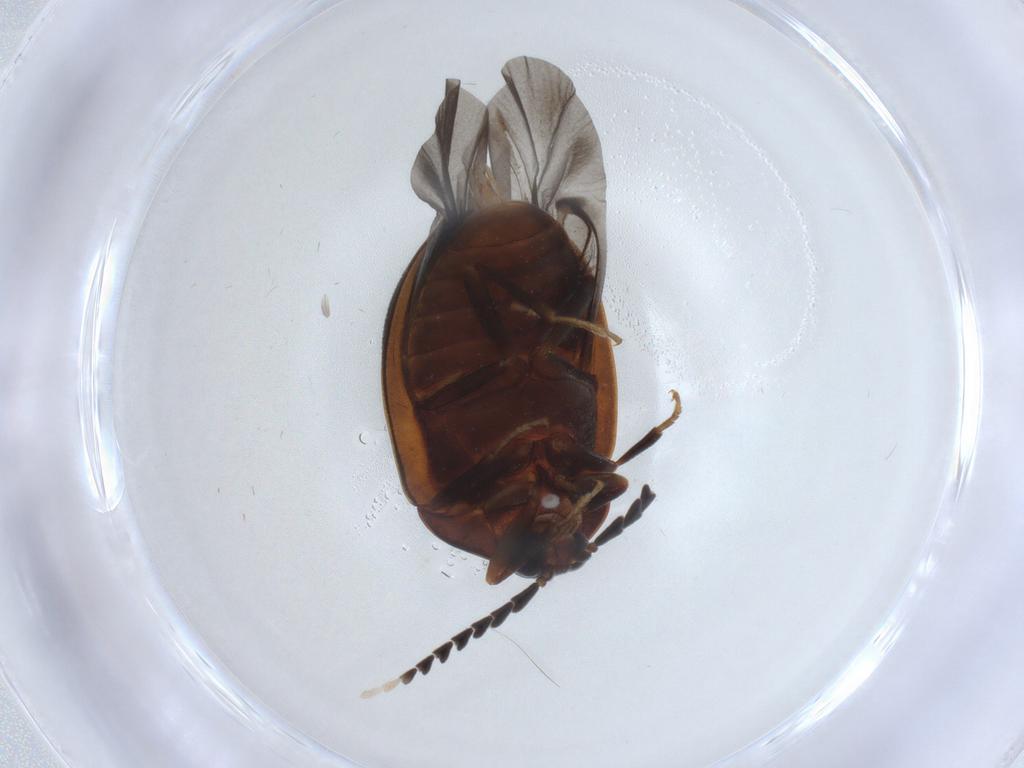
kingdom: Animalia
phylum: Arthropoda
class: Insecta
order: Coleoptera
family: Psephenidae
